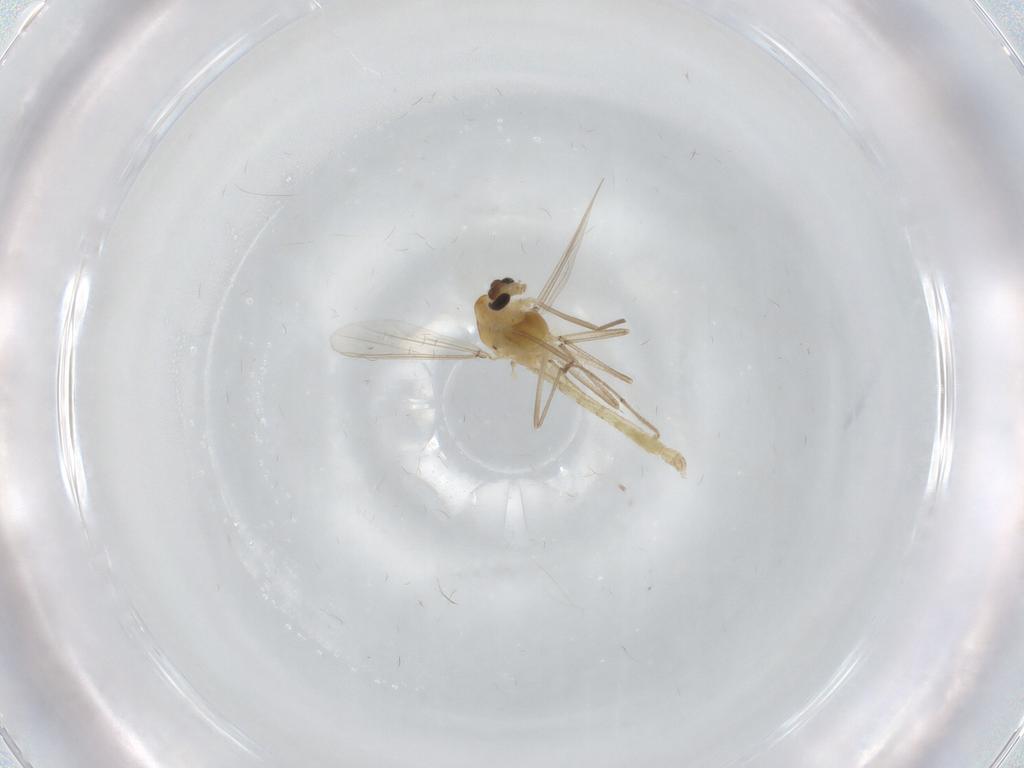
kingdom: Animalia
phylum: Arthropoda
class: Insecta
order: Diptera
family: Chironomidae
